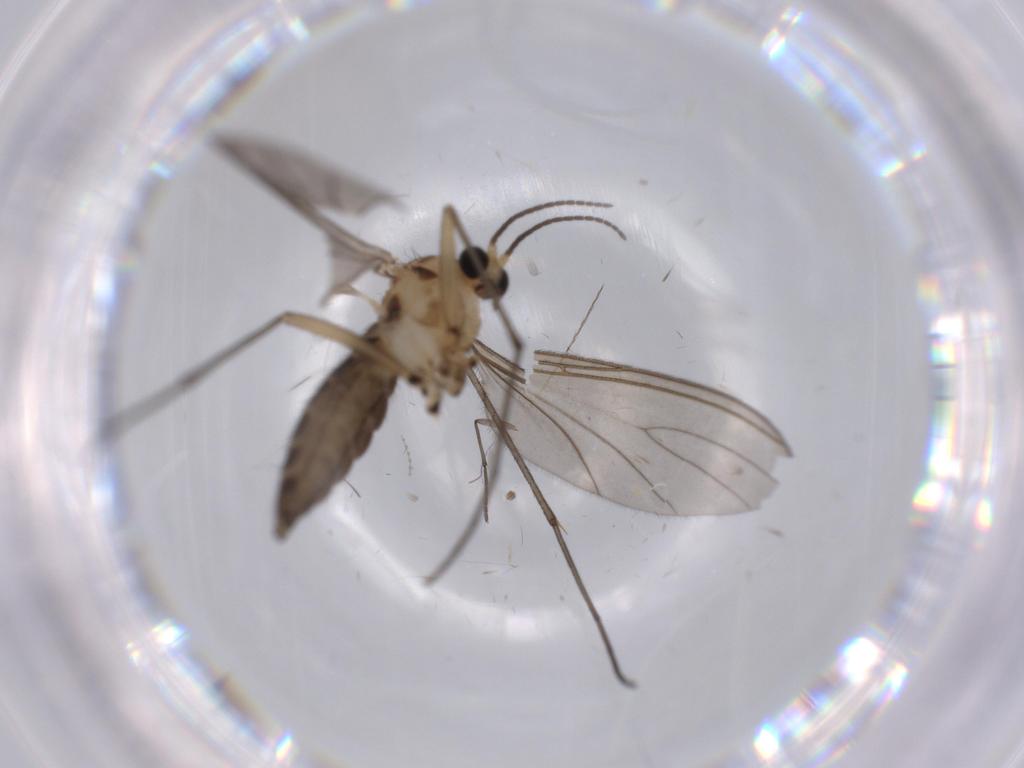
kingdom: Animalia
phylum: Arthropoda
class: Insecta
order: Diptera
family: Sciaridae
